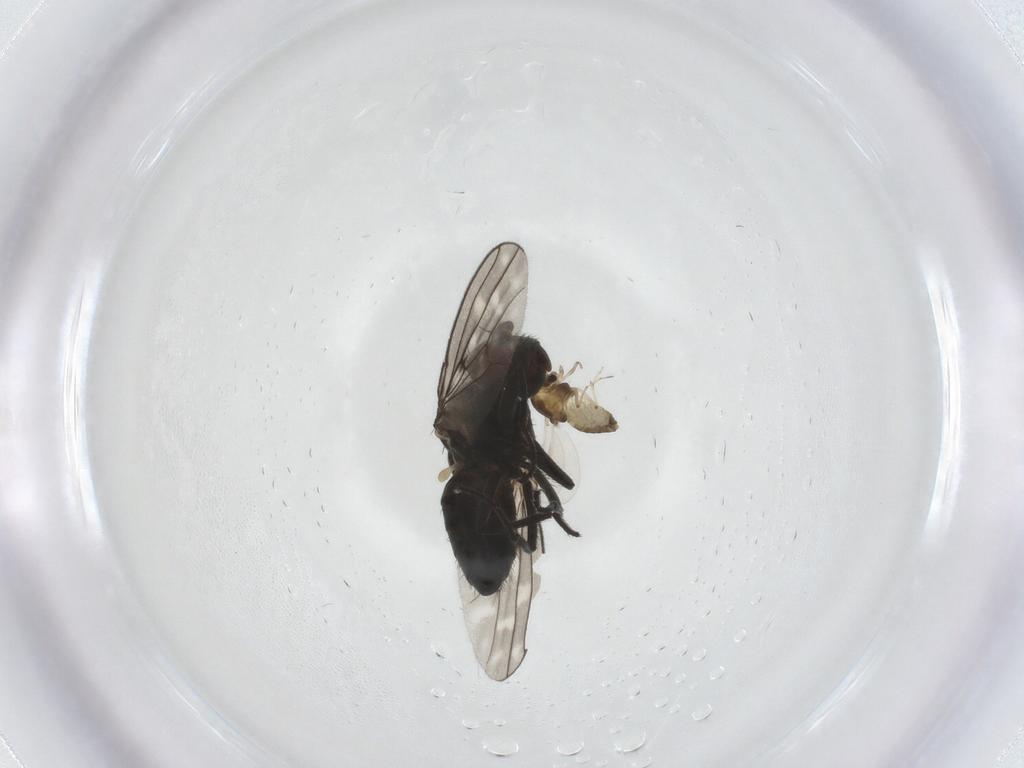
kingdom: Animalia
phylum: Arthropoda
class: Insecta
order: Diptera
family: Chironomidae
